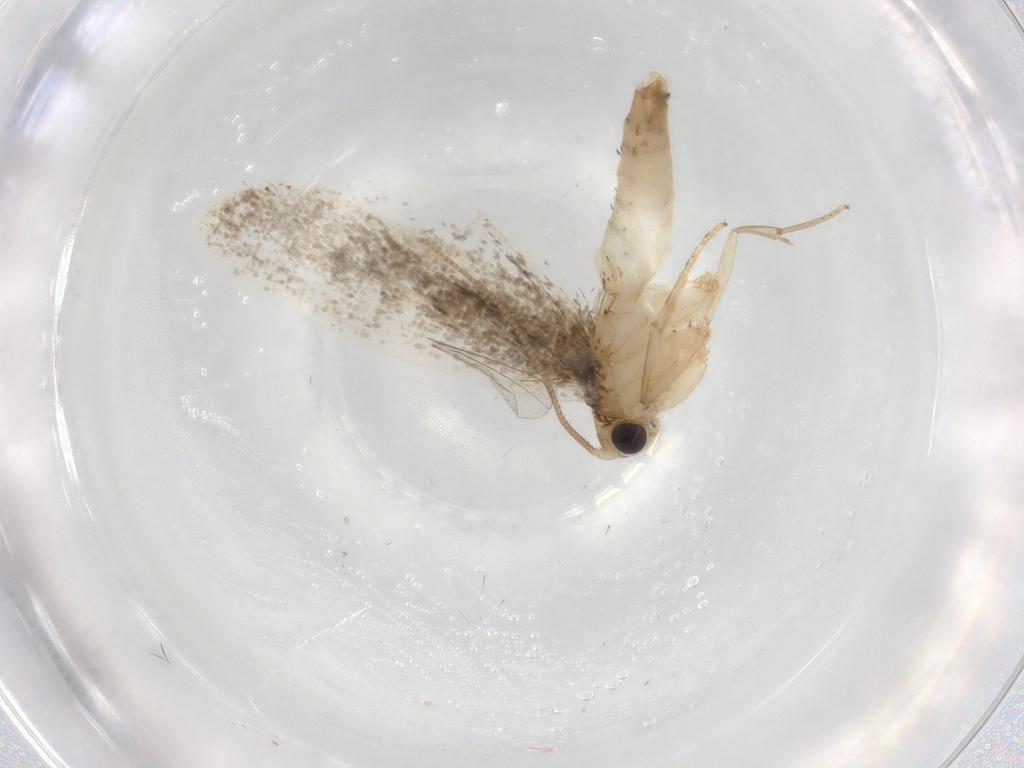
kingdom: Animalia
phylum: Arthropoda
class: Insecta
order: Lepidoptera
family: Tineidae
